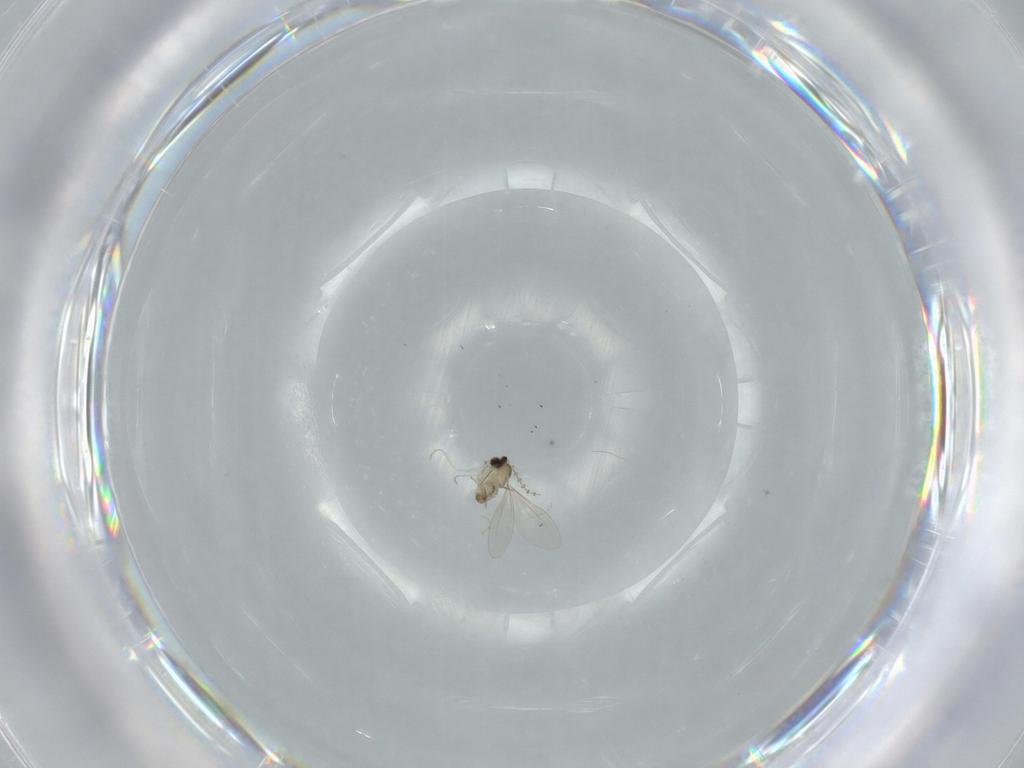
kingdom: Animalia
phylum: Arthropoda
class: Insecta
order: Diptera
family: Cecidomyiidae
